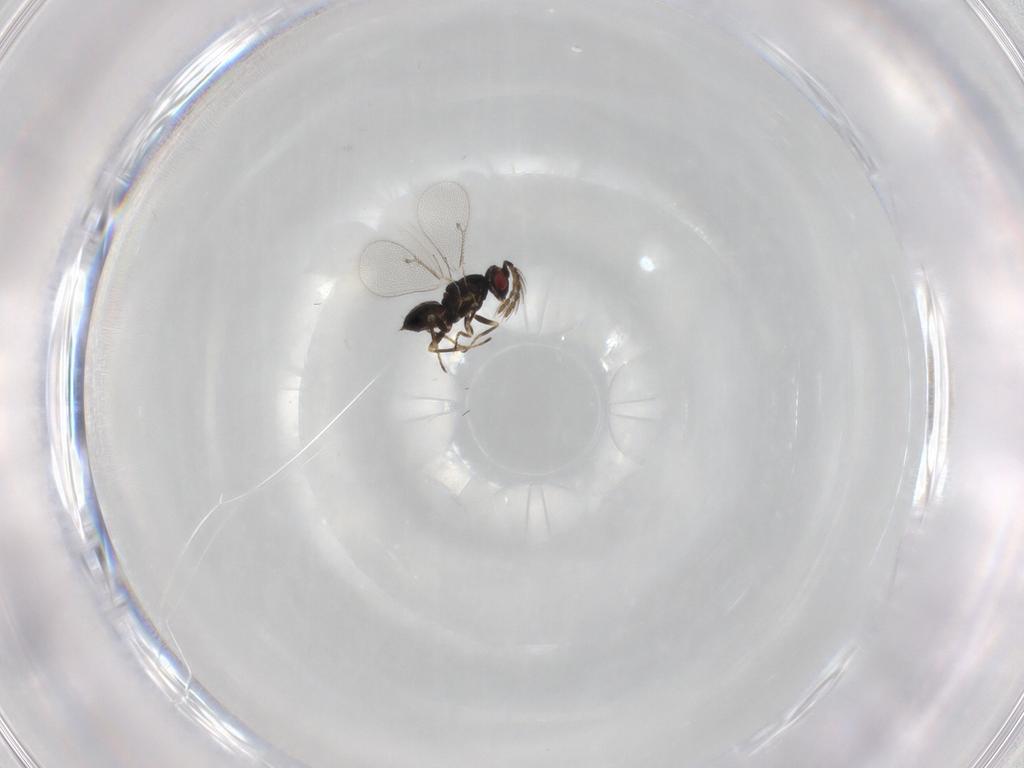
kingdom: Animalia
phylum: Arthropoda
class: Insecta
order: Hymenoptera
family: Eulophidae
